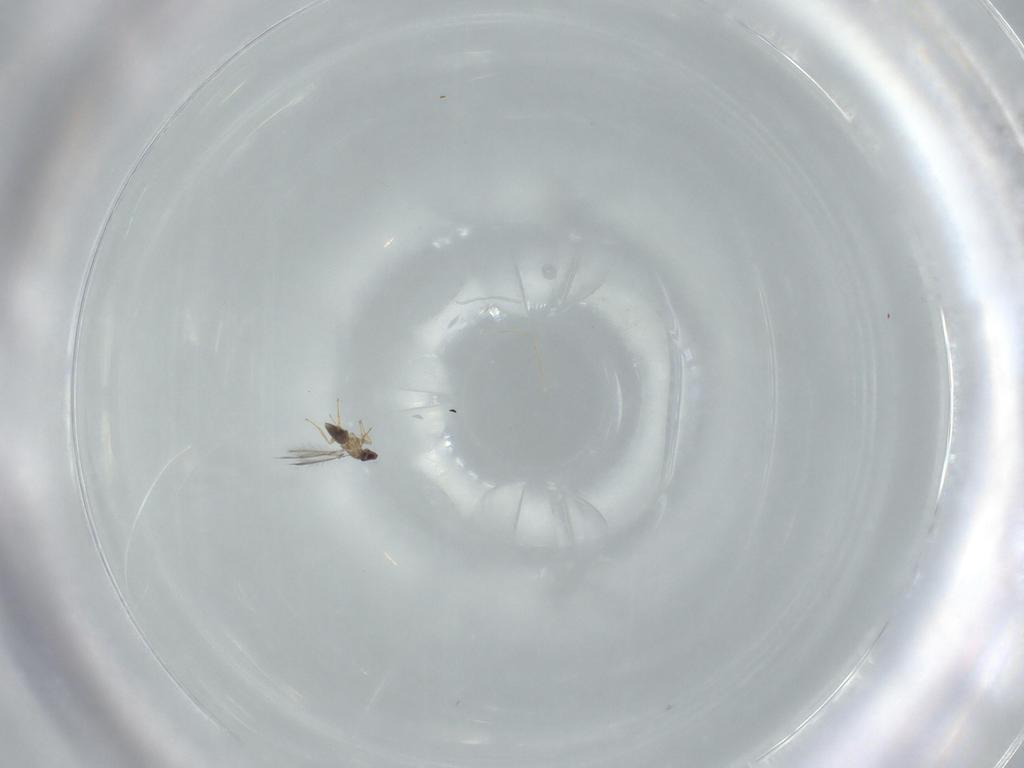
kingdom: Animalia
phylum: Arthropoda
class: Insecta
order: Hymenoptera
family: Mymaridae
